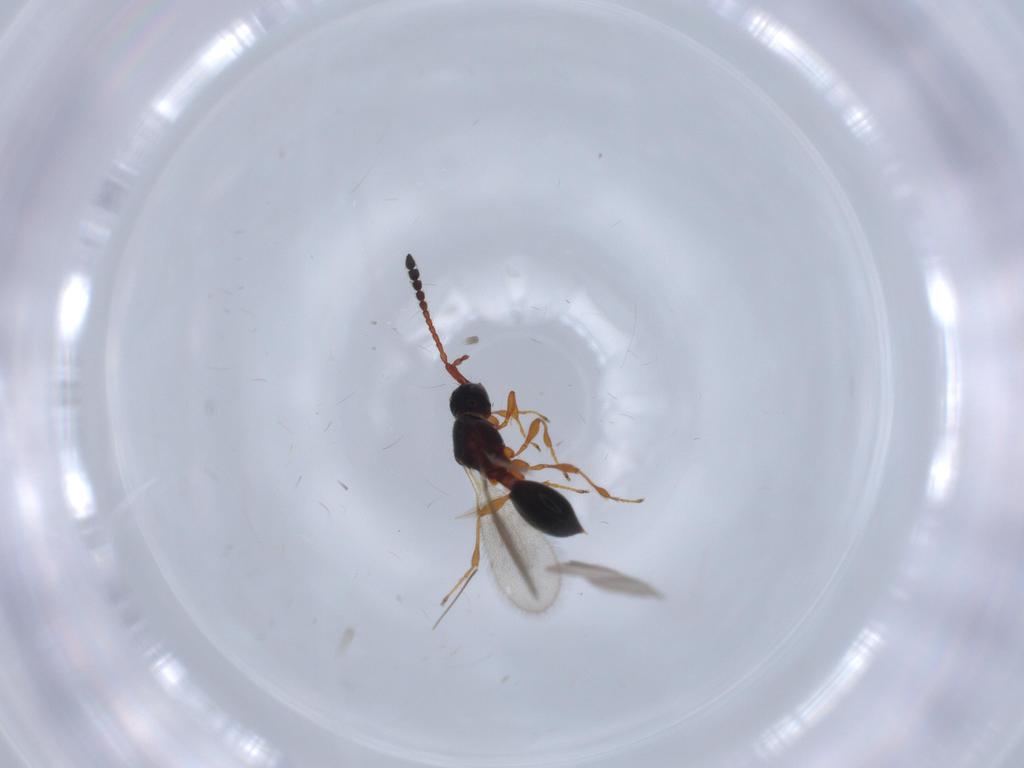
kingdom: Animalia
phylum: Arthropoda
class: Insecta
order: Hymenoptera
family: Diapriidae
